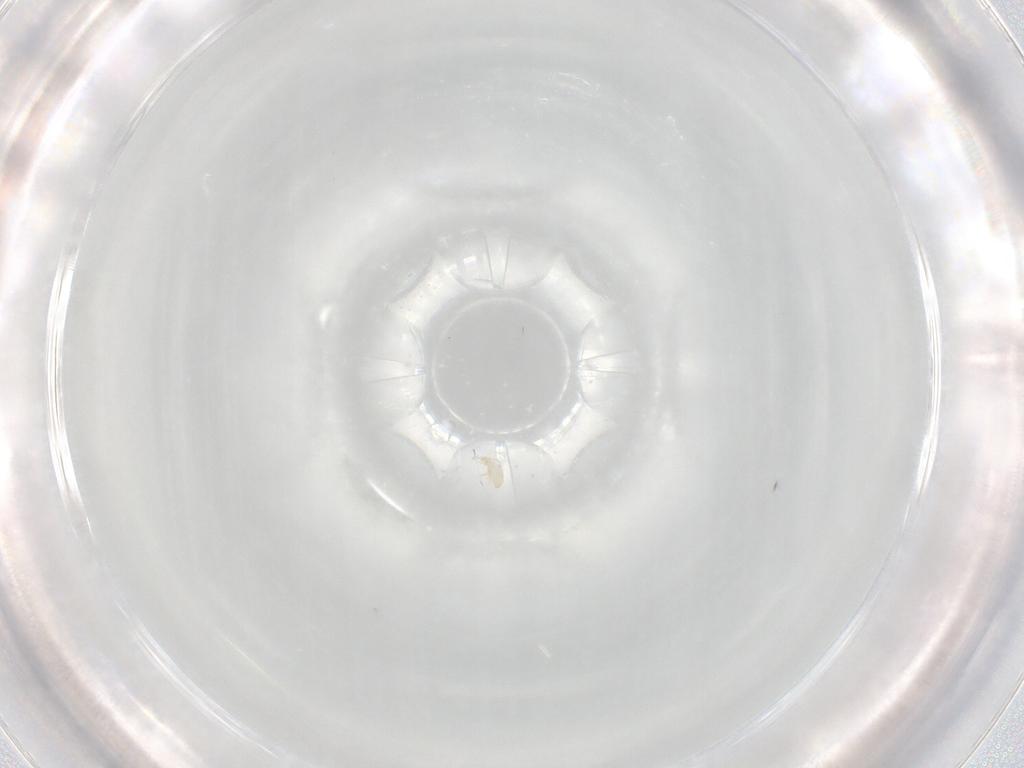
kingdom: Animalia
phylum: Arthropoda
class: Arachnida
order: Trombidiformes
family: Pygmephoridae
